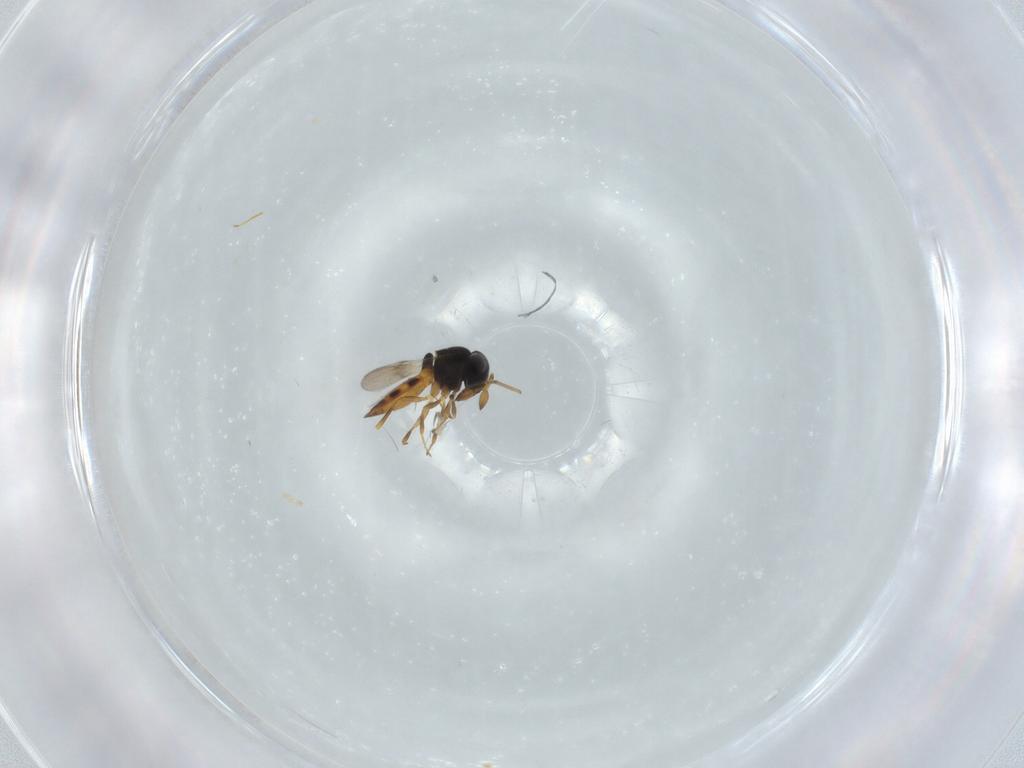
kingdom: Animalia
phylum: Arthropoda
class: Arachnida
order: Araneae
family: Pholcidae
